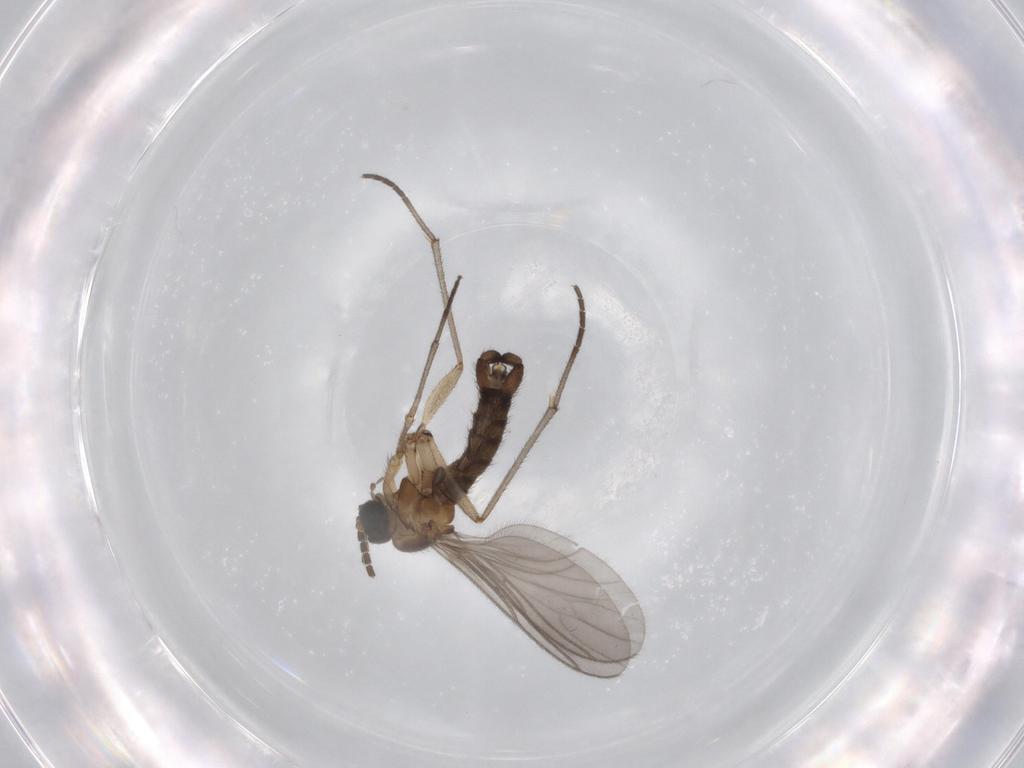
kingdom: Animalia
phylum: Arthropoda
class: Insecta
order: Diptera
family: Sciaridae
